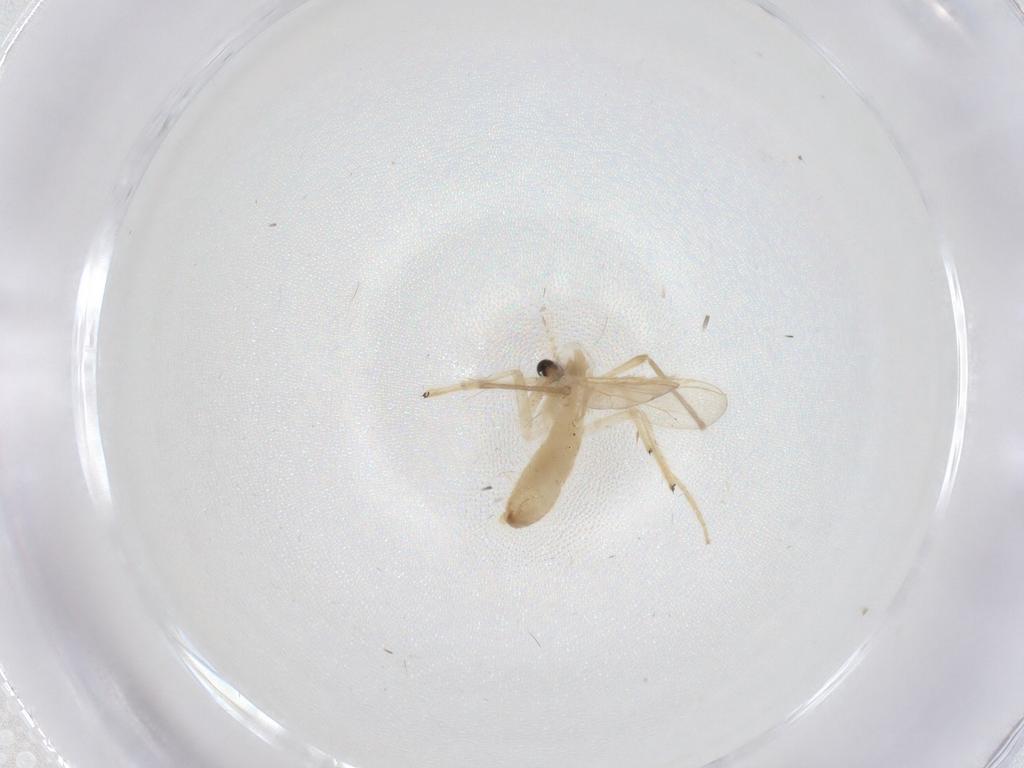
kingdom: Animalia
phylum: Arthropoda
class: Insecta
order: Diptera
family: Chironomidae
